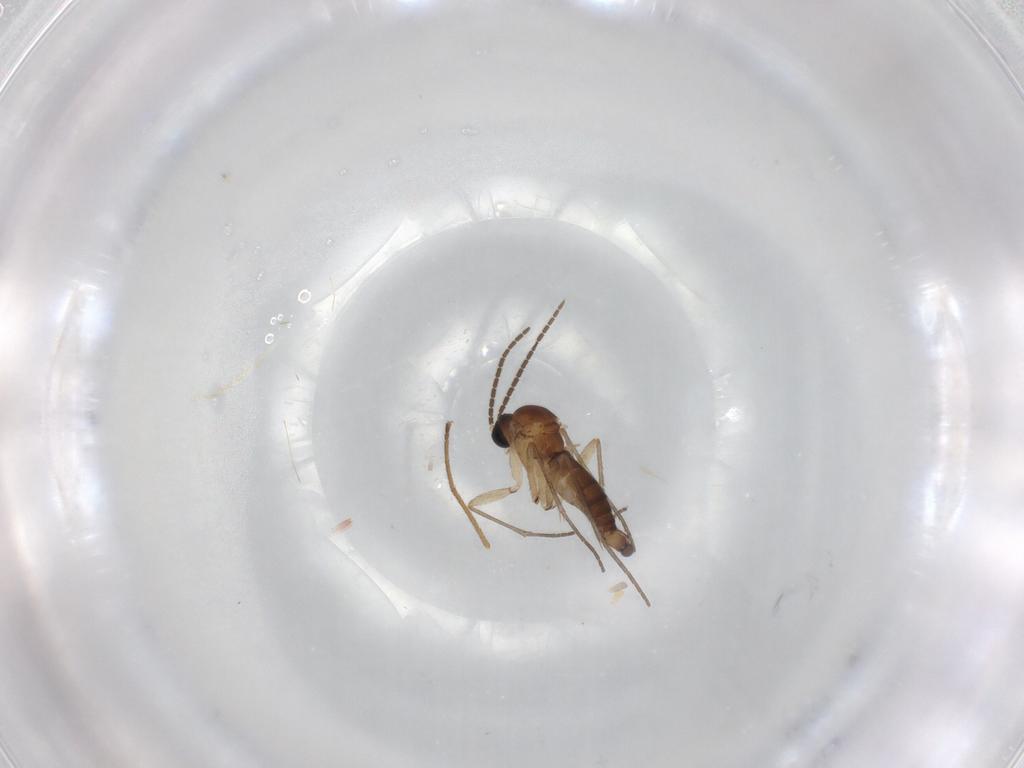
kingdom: Animalia
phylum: Arthropoda
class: Insecta
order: Diptera
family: Sciaridae
